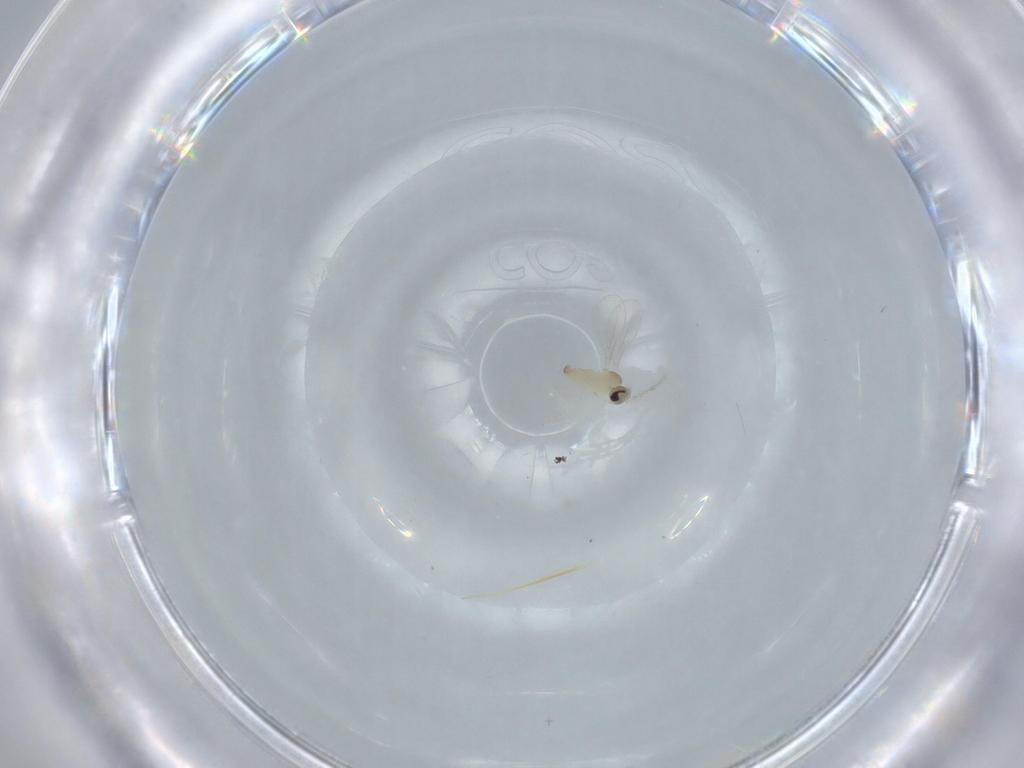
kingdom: Animalia
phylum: Arthropoda
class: Insecta
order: Diptera
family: Cecidomyiidae
